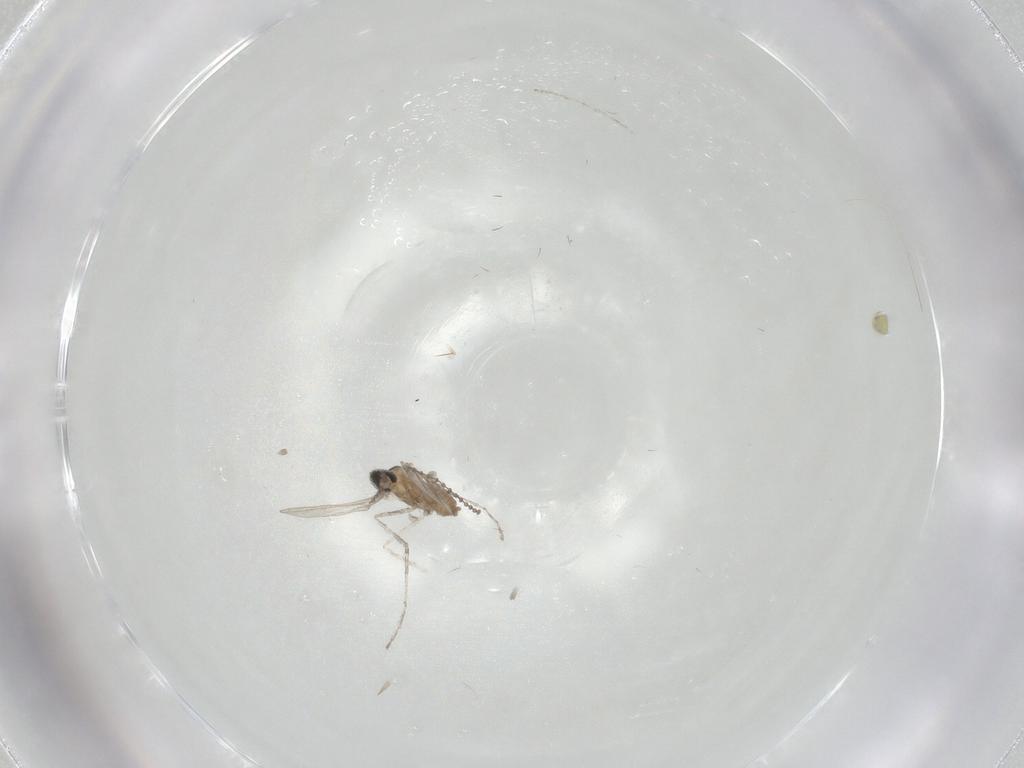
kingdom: Animalia
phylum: Arthropoda
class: Insecta
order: Diptera
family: Cecidomyiidae
